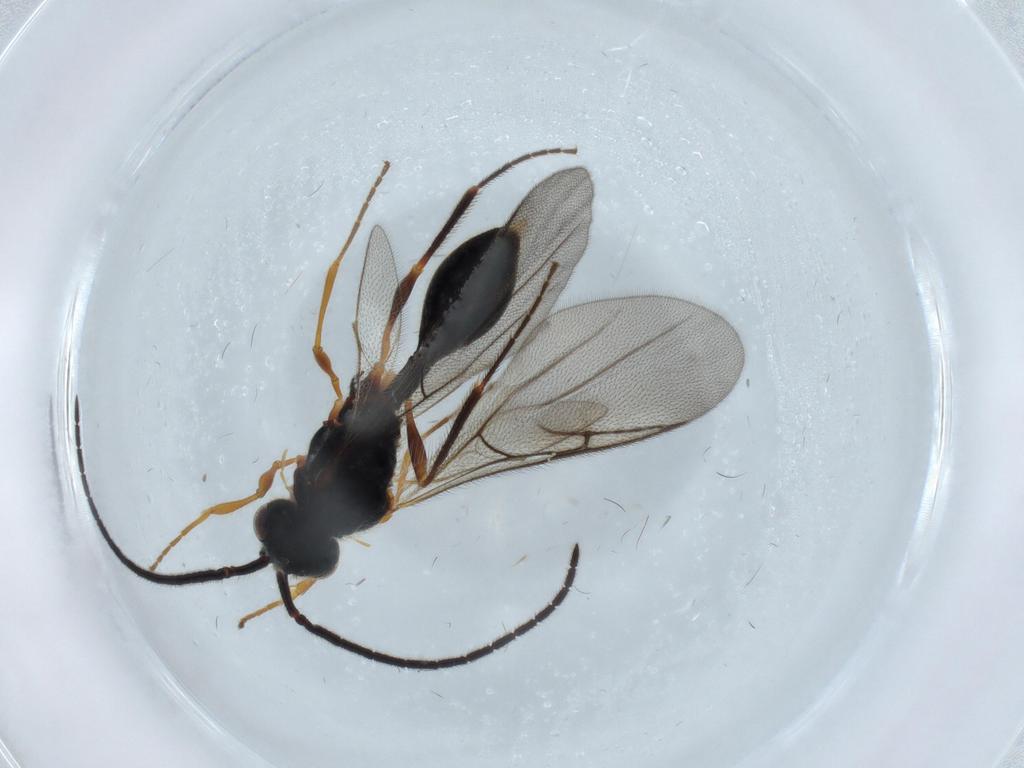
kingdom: Animalia
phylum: Arthropoda
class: Insecta
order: Hymenoptera
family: Diapriidae
